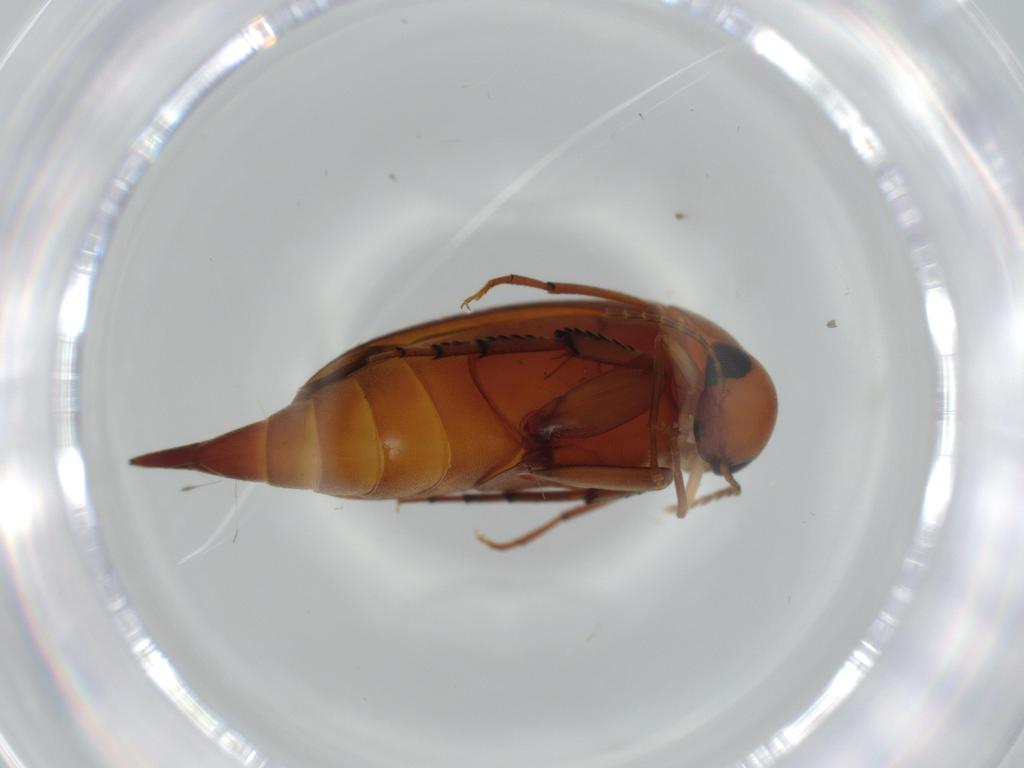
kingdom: Animalia
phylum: Arthropoda
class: Insecta
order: Coleoptera
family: Mordellidae
